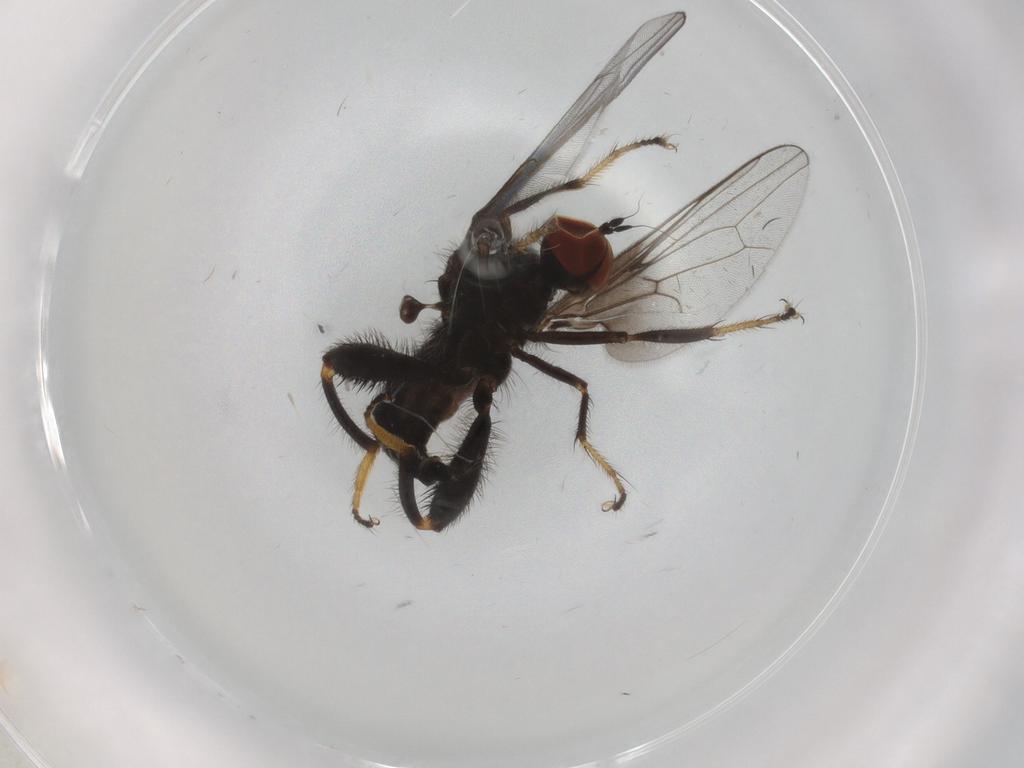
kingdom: Animalia
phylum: Arthropoda
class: Insecta
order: Diptera
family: Hybotidae
